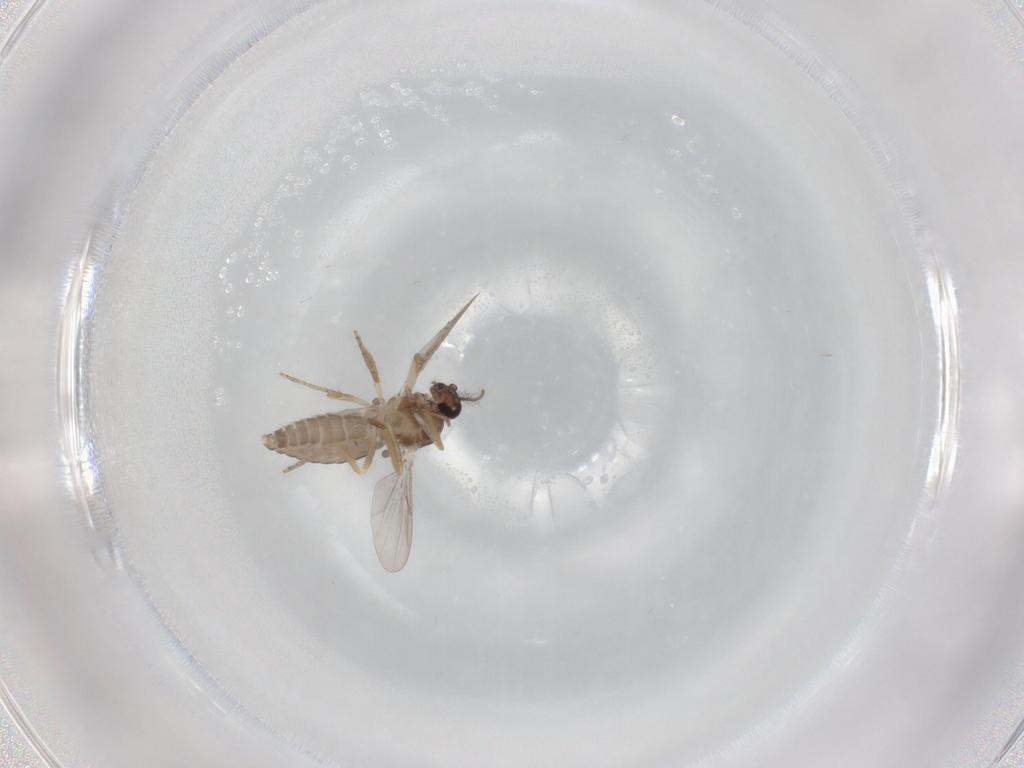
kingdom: Animalia
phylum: Arthropoda
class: Insecta
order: Diptera
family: Ceratopogonidae
